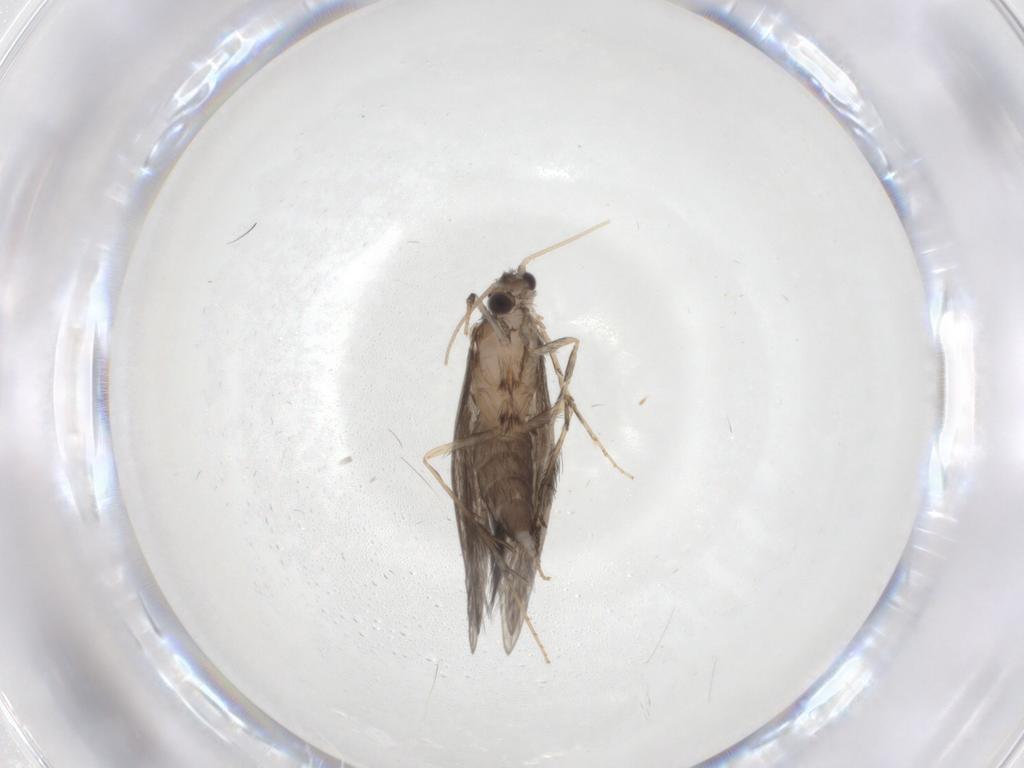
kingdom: Animalia
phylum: Arthropoda
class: Insecta
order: Trichoptera
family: Hydroptilidae
